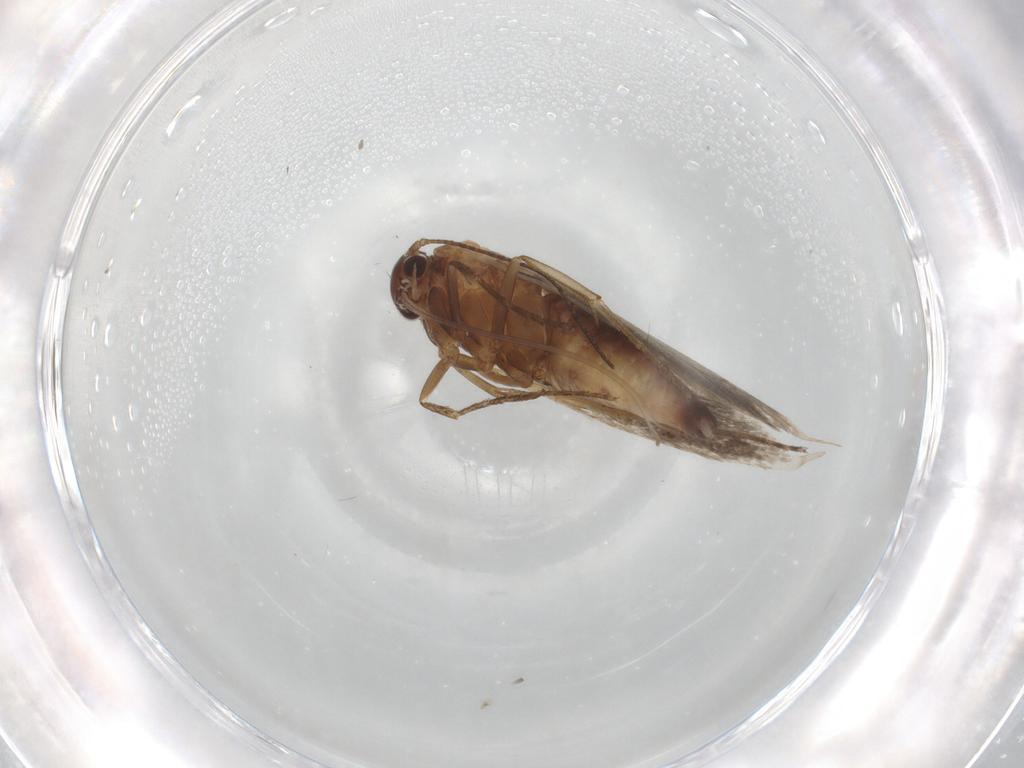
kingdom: Animalia
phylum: Arthropoda
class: Insecta
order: Lepidoptera
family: Scythrididae
